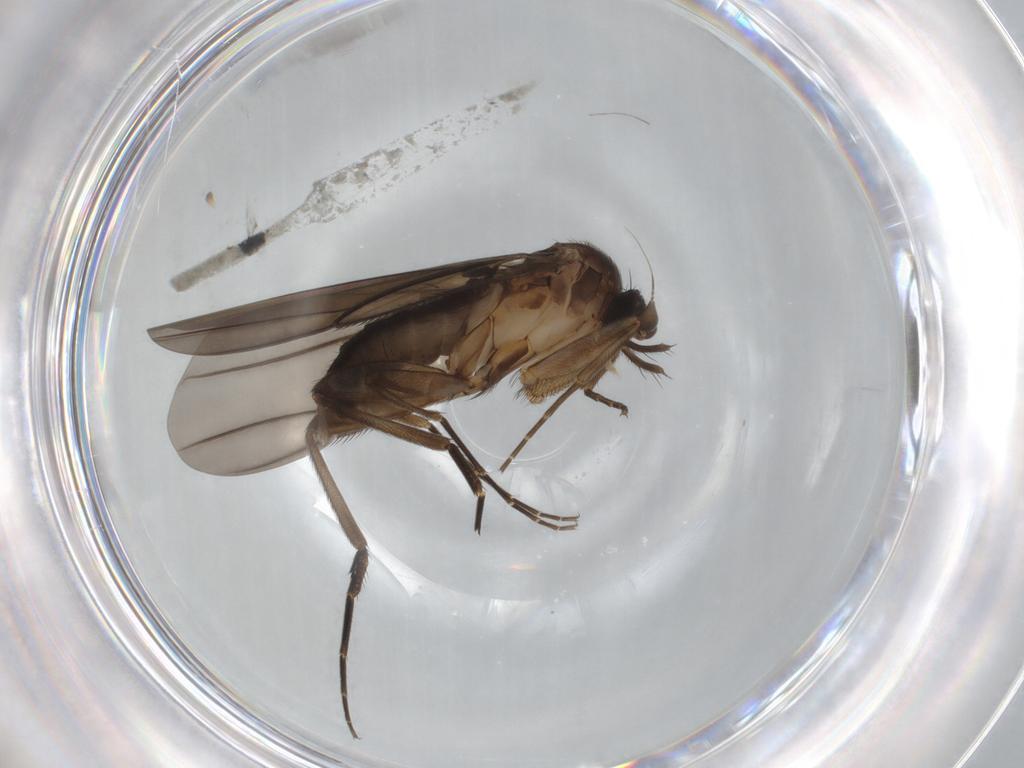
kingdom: Animalia
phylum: Arthropoda
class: Insecta
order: Diptera
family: Phoridae
